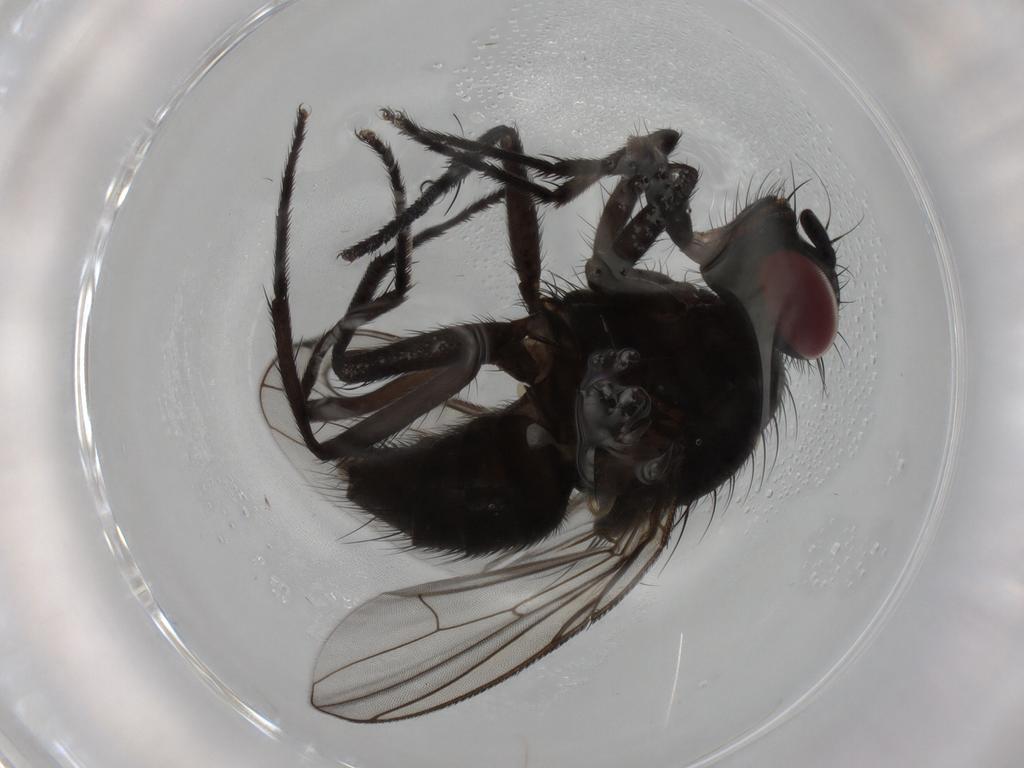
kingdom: Animalia
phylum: Arthropoda
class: Insecta
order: Diptera
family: Muscidae
